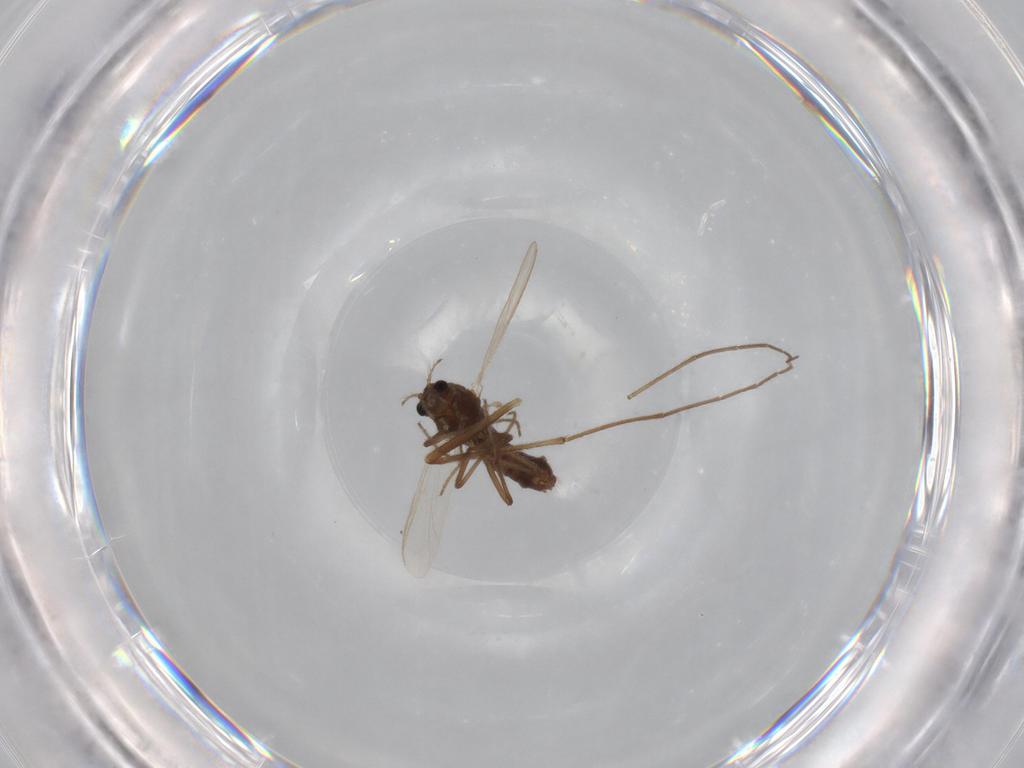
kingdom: Animalia
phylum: Arthropoda
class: Insecta
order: Diptera
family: Chironomidae
